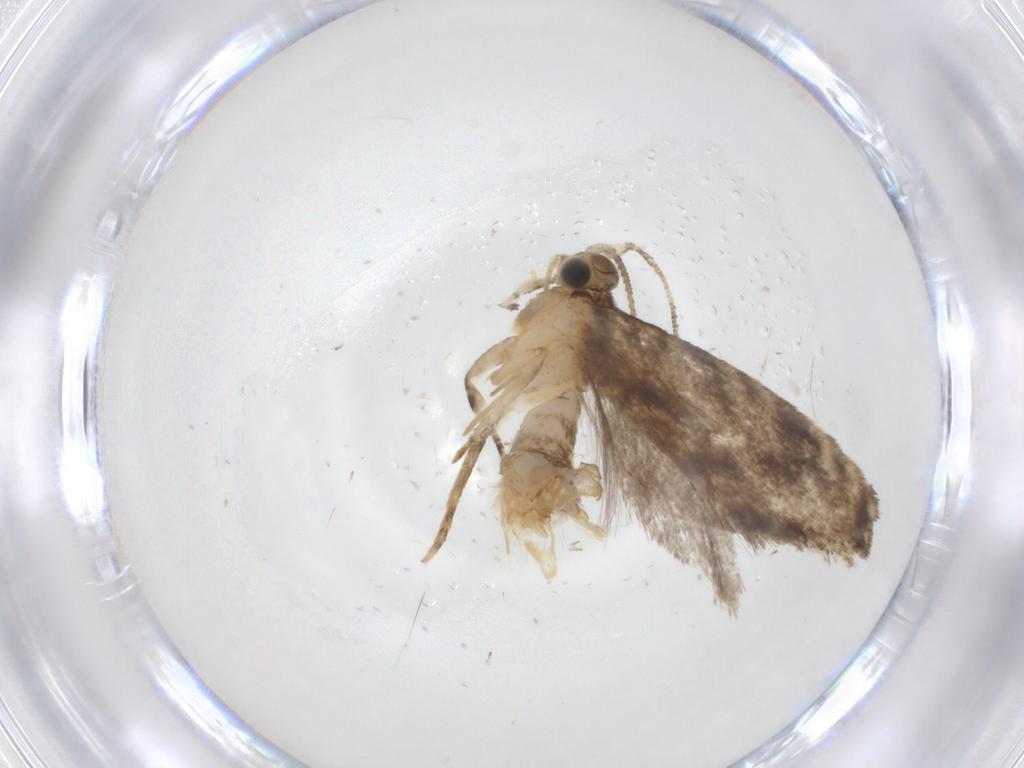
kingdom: Animalia
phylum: Arthropoda
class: Insecta
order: Lepidoptera
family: Tineidae
